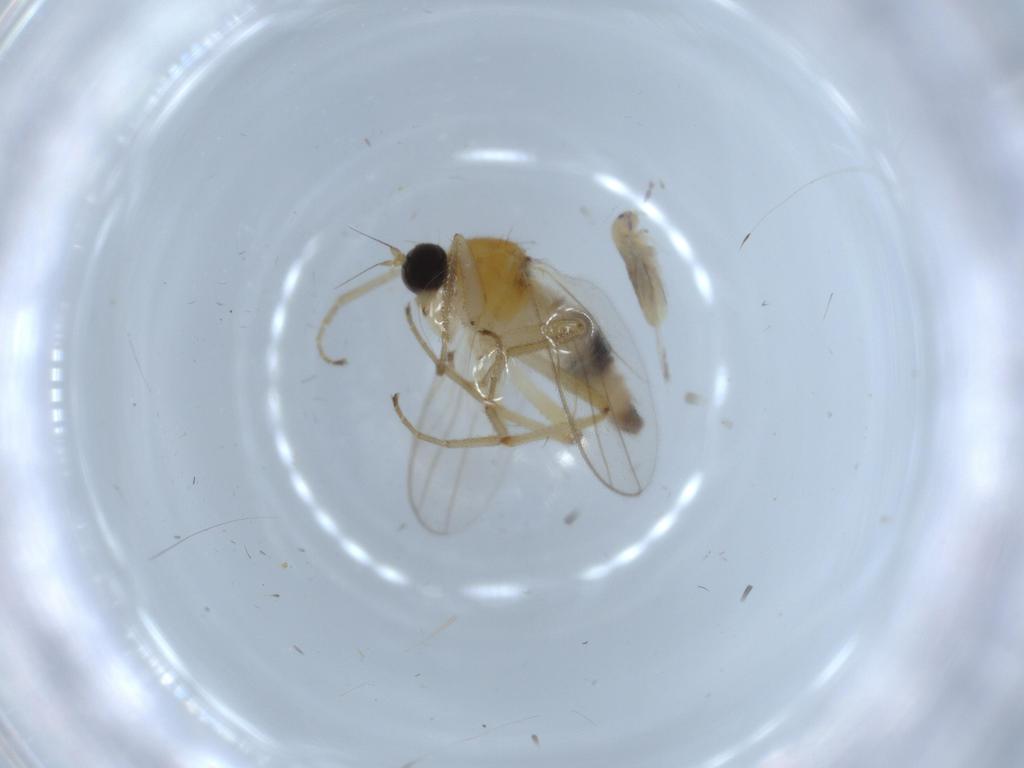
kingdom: Animalia
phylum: Arthropoda
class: Insecta
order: Diptera
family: Hybotidae
